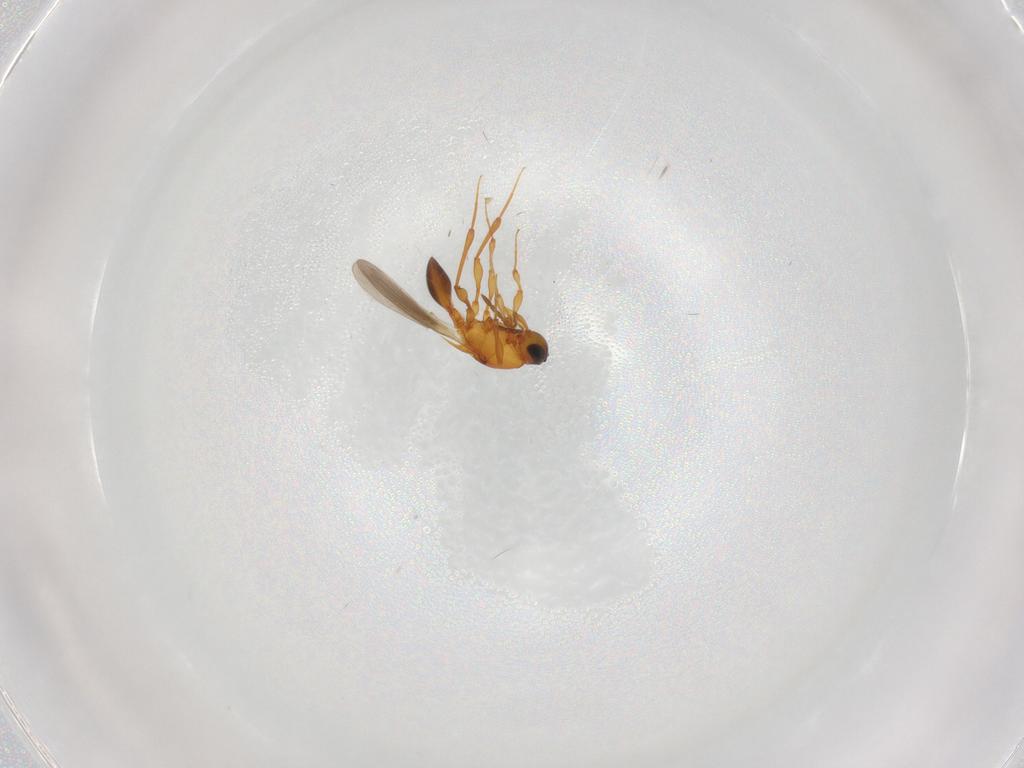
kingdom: Animalia
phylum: Arthropoda
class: Insecta
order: Hymenoptera
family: Platygastridae
